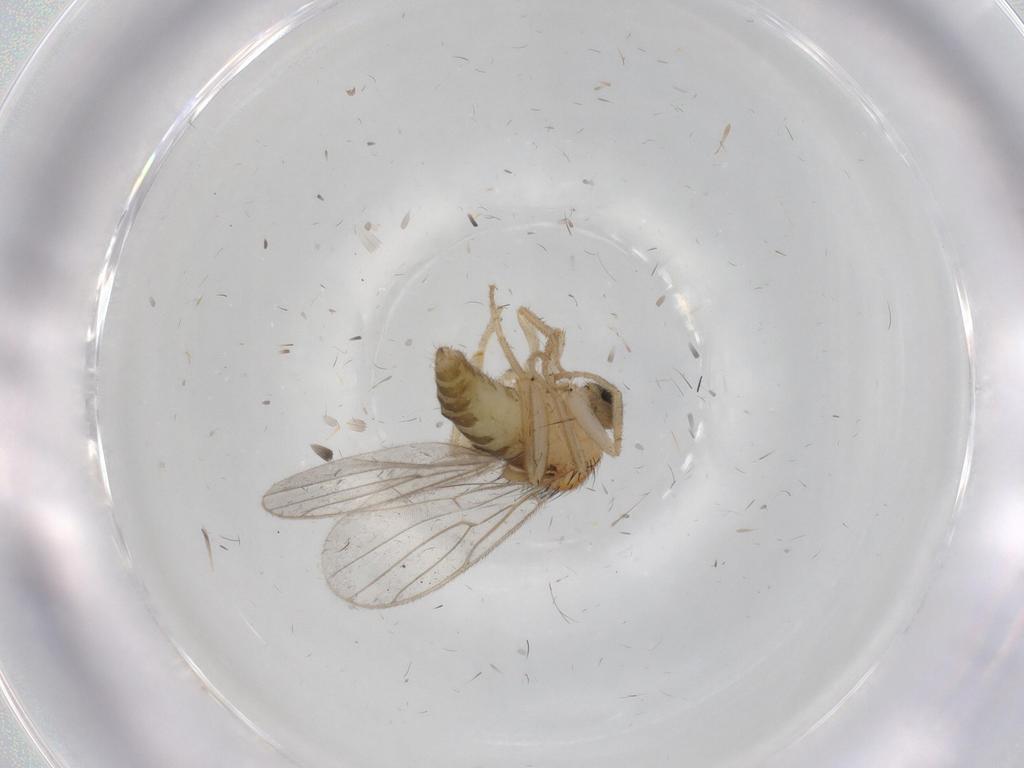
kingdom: Animalia
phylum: Arthropoda
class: Insecta
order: Diptera
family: Hybotidae
